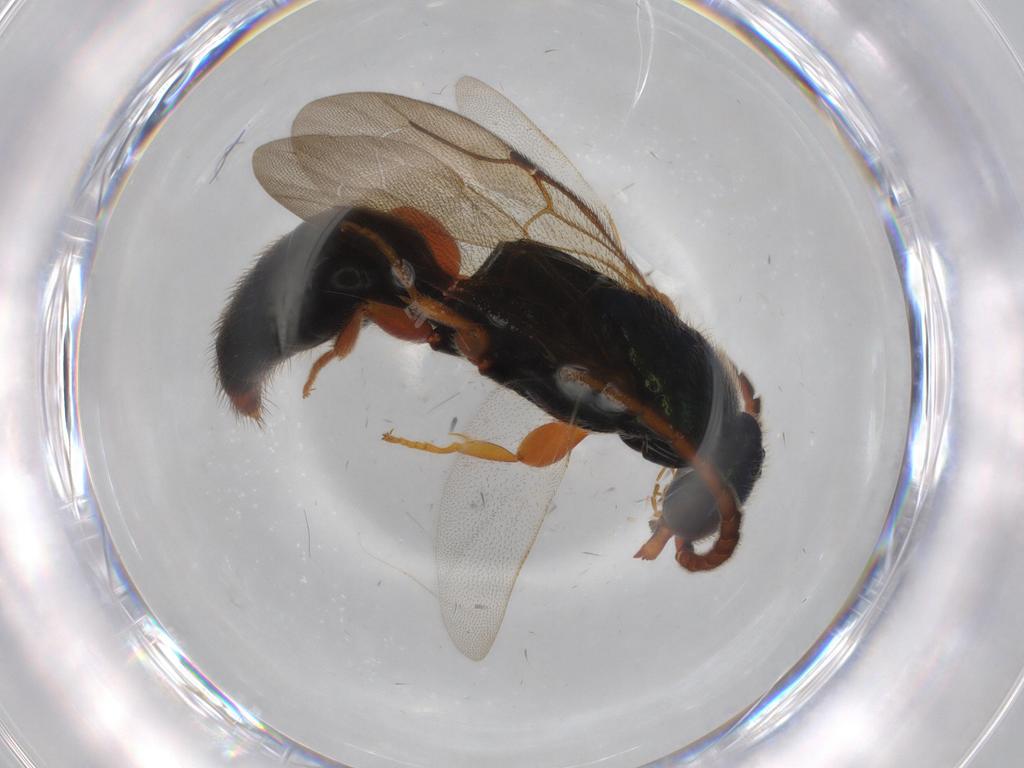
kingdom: Animalia
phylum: Arthropoda
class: Insecta
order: Hymenoptera
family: Bethylidae
